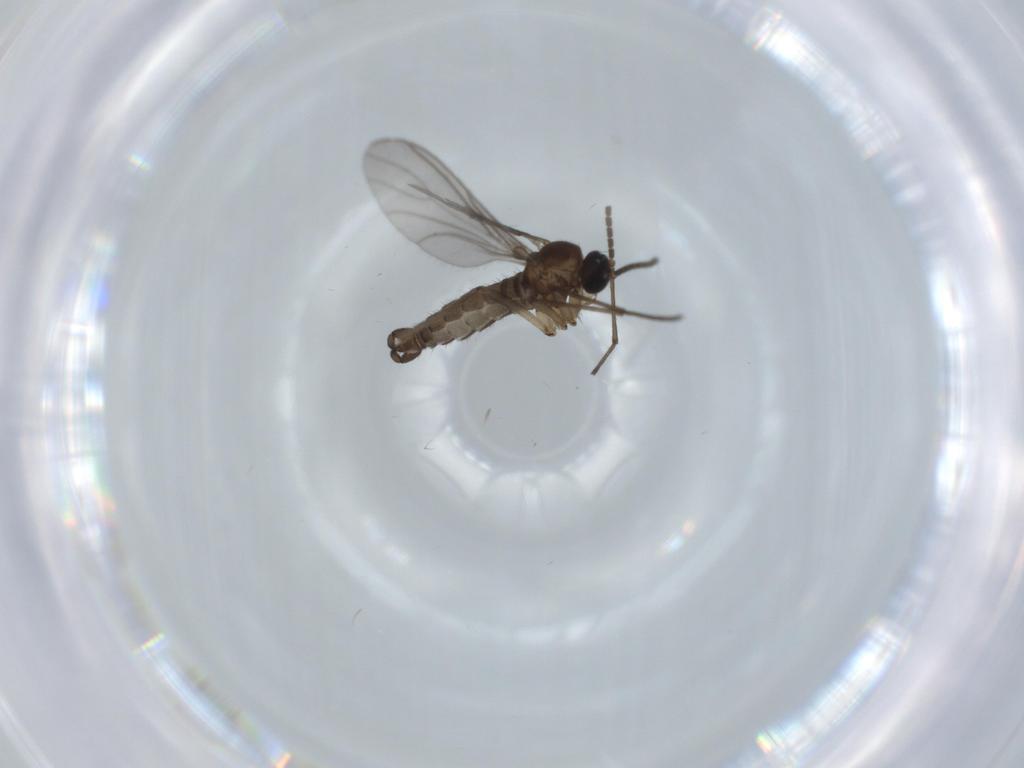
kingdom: Animalia
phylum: Arthropoda
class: Insecta
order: Diptera
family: Sciaridae
